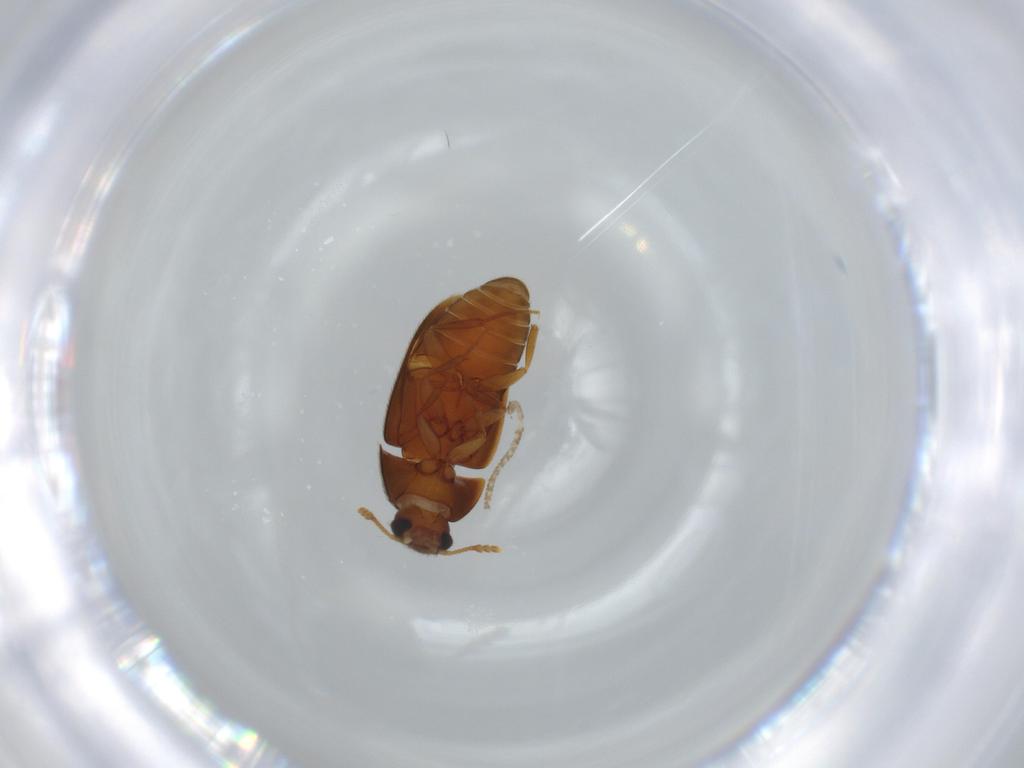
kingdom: Animalia
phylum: Arthropoda
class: Insecta
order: Coleoptera
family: Mycetophagidae
